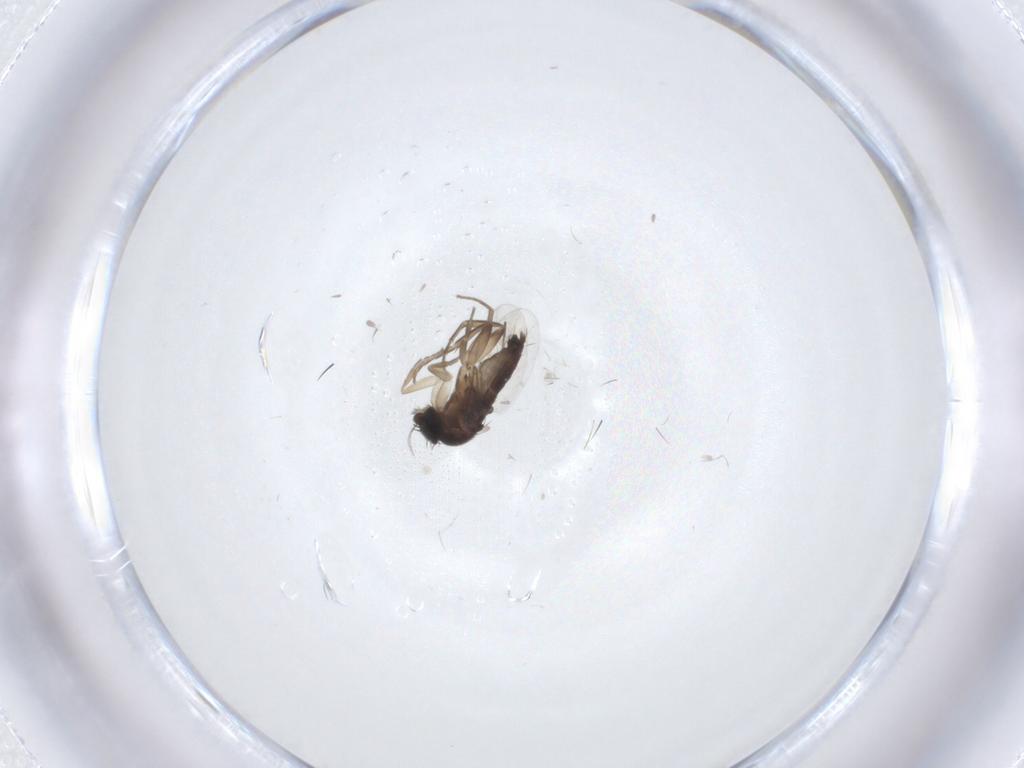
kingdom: Animalia
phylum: Arthropoda
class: Insecta
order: Diptera
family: Phoridae
